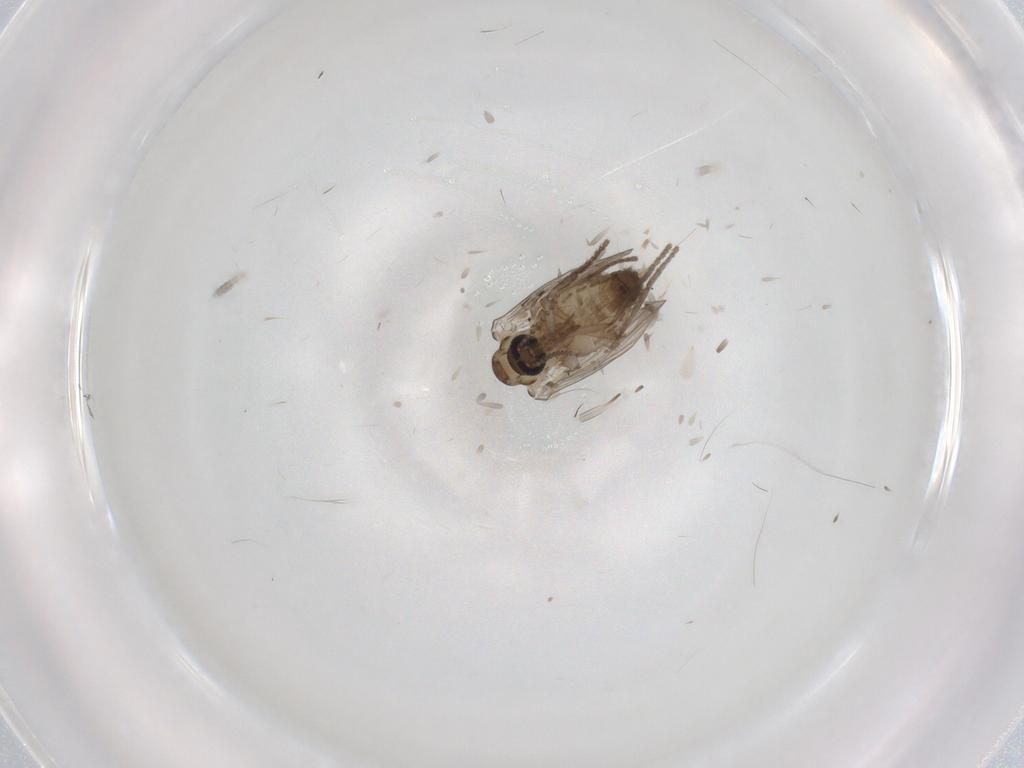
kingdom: Animalia
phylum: Arthropoda
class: Insecta
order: Diptera
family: Psychodidae
